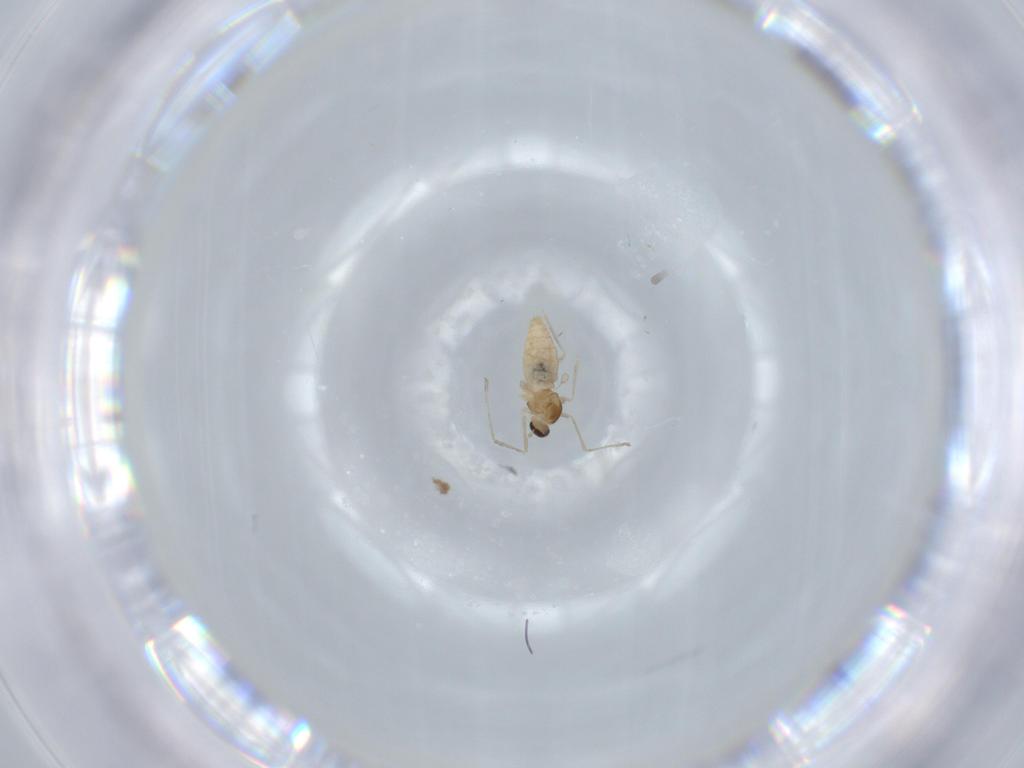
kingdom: Animalia
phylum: Arthropoda
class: Insecta
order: Diptera
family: Cecidomyiidae
